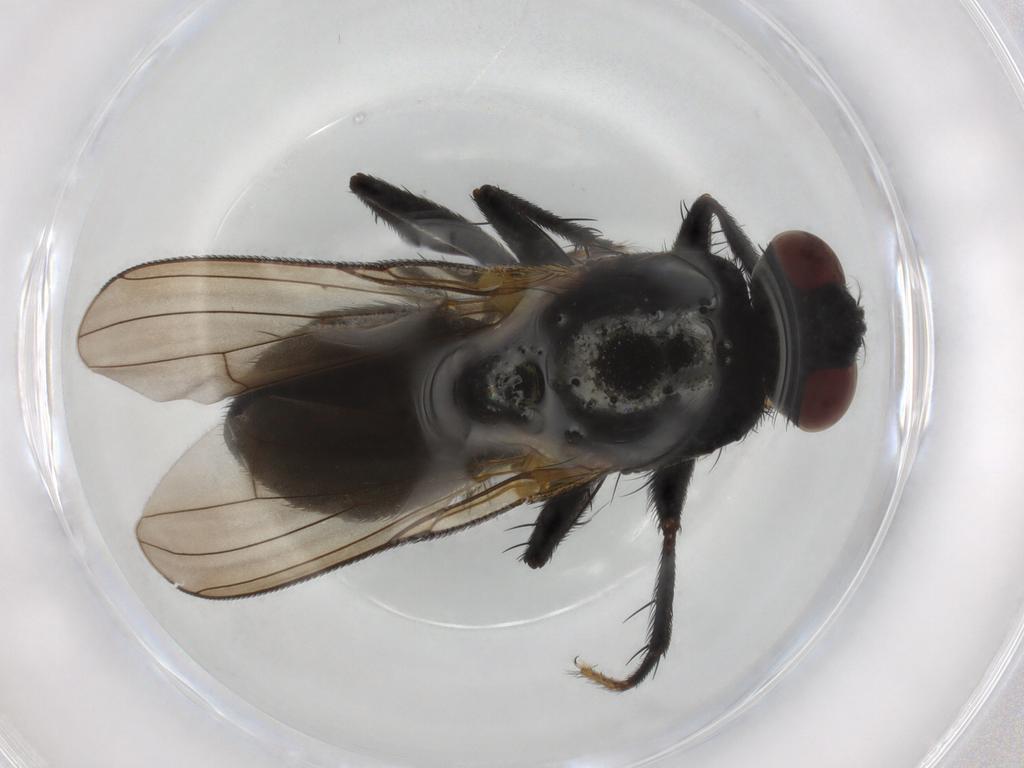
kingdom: Animalia
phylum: Arthropoda
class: Insecta
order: Diptera
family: Muscidae
